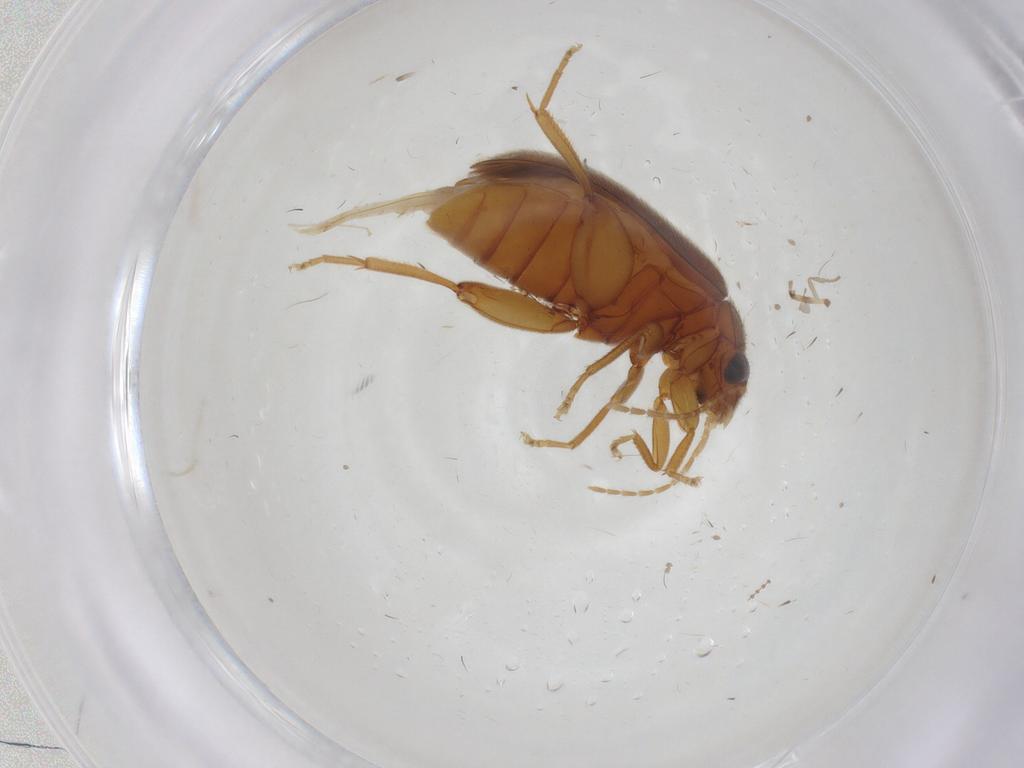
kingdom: Animalia
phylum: Arthropoda
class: Insecta
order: Coleoptera
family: Scirtidae
